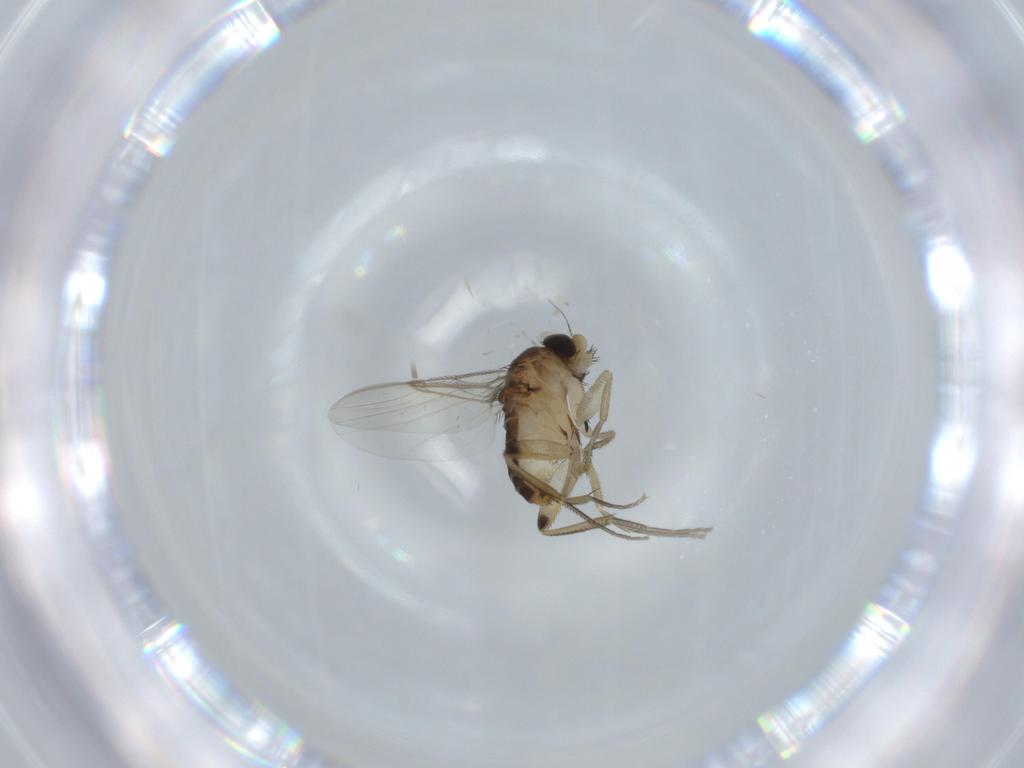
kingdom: Animalia
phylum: Arthropoda
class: Insecta
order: Diptera
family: Phoridae
